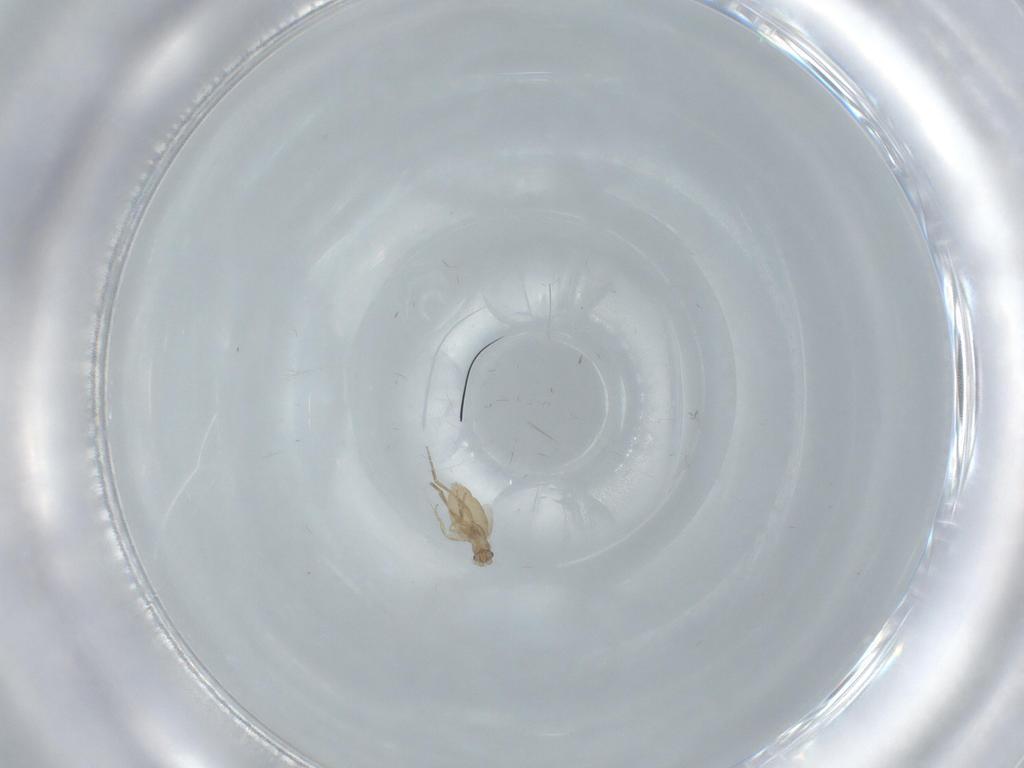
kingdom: Animalia
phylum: Arthropoda
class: Insecta
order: Diptera
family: Phoridae
